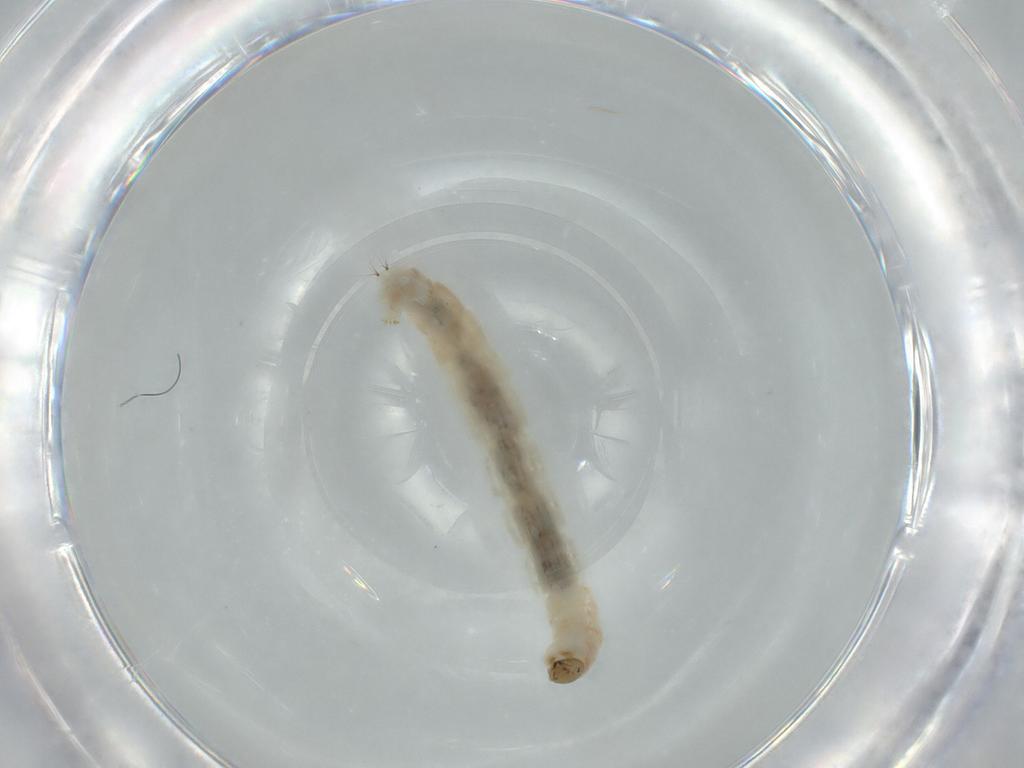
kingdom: Animalia
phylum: Arthropoda
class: Insecta
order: Diptera
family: Chironomidae
